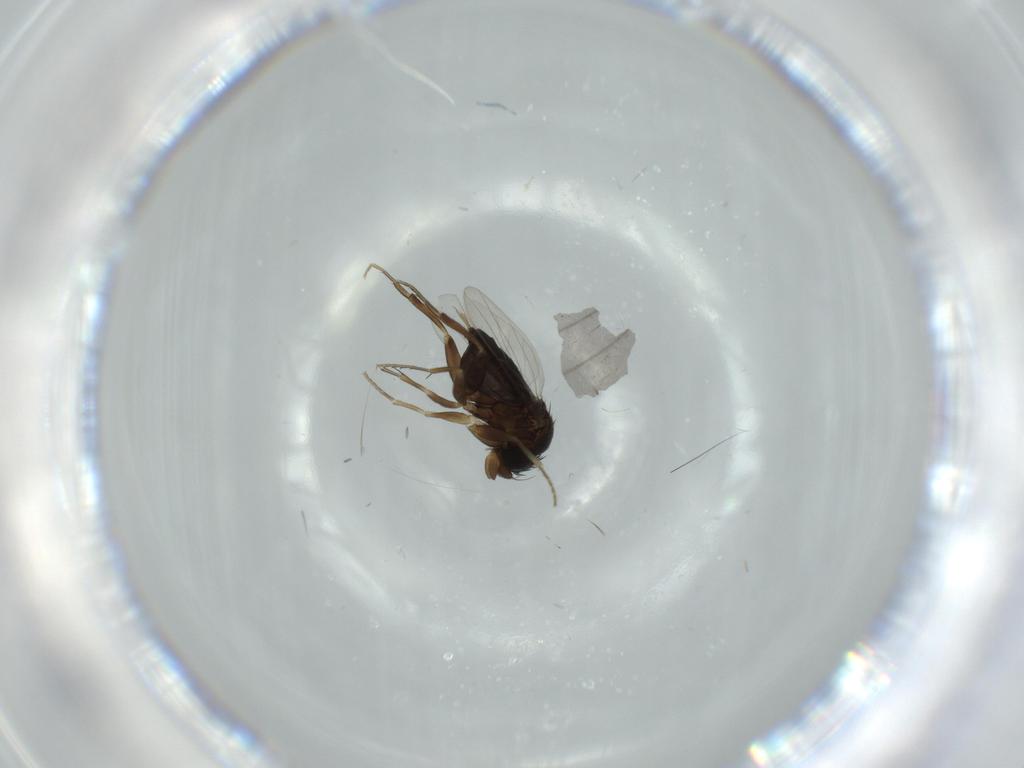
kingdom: Animalia
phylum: Arthropoda
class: Insecta
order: Diptera
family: Phoridae
